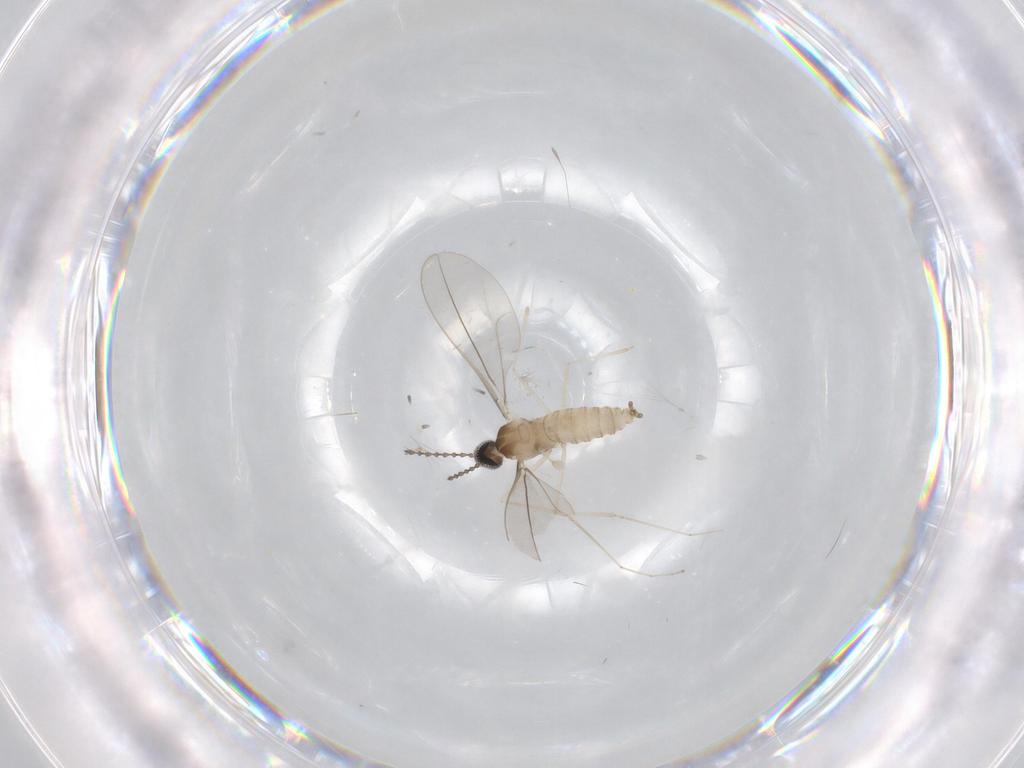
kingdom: Animalia
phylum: Arthropoda
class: Insecta
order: Diptera
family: Cecidomyiidae
